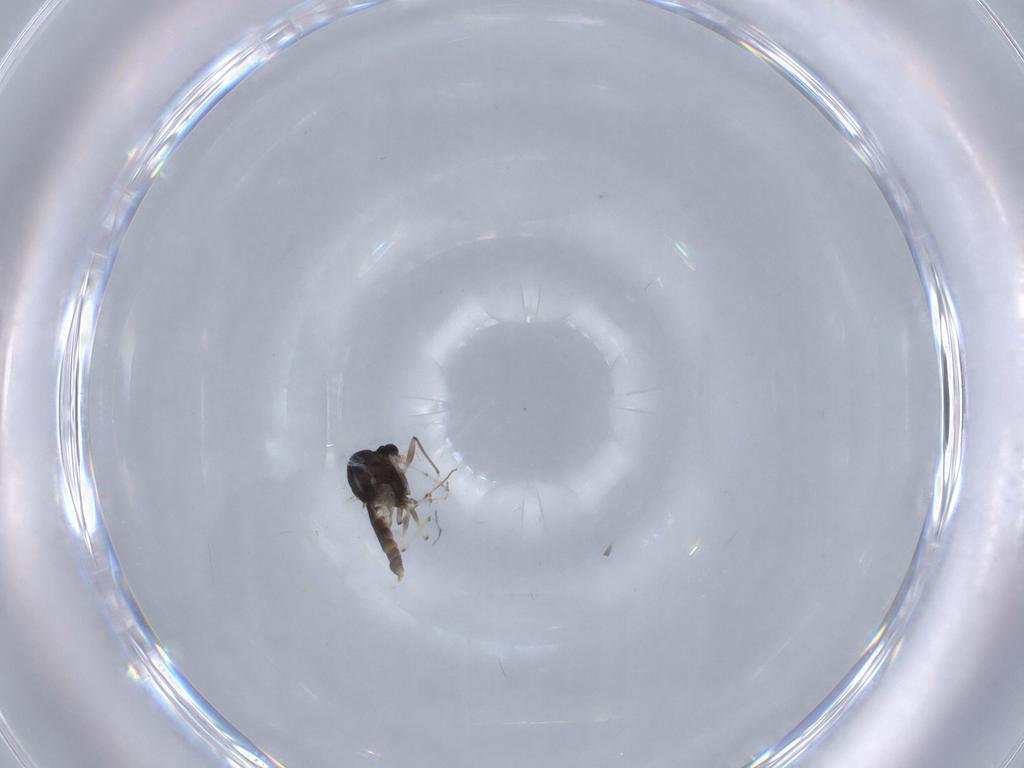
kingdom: Animalia
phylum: Arthropoda
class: Insecta
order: Diptera
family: Chironomidae
